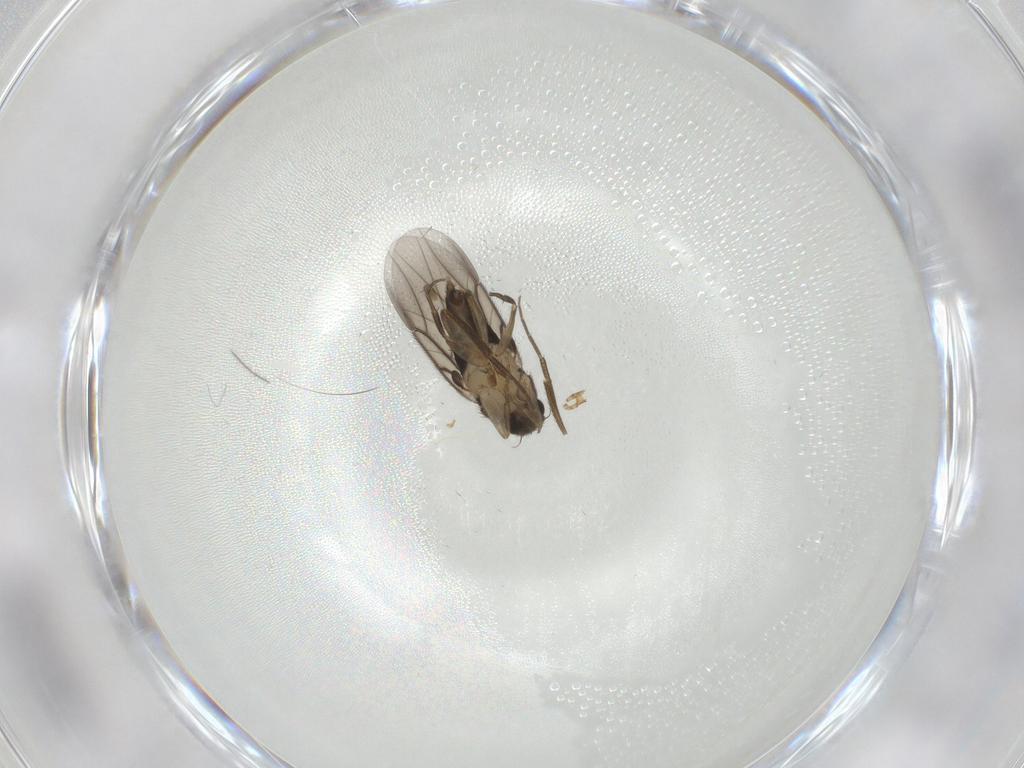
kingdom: Animalia
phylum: Arthropoda
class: Insecta
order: Diptera
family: Phoridae
